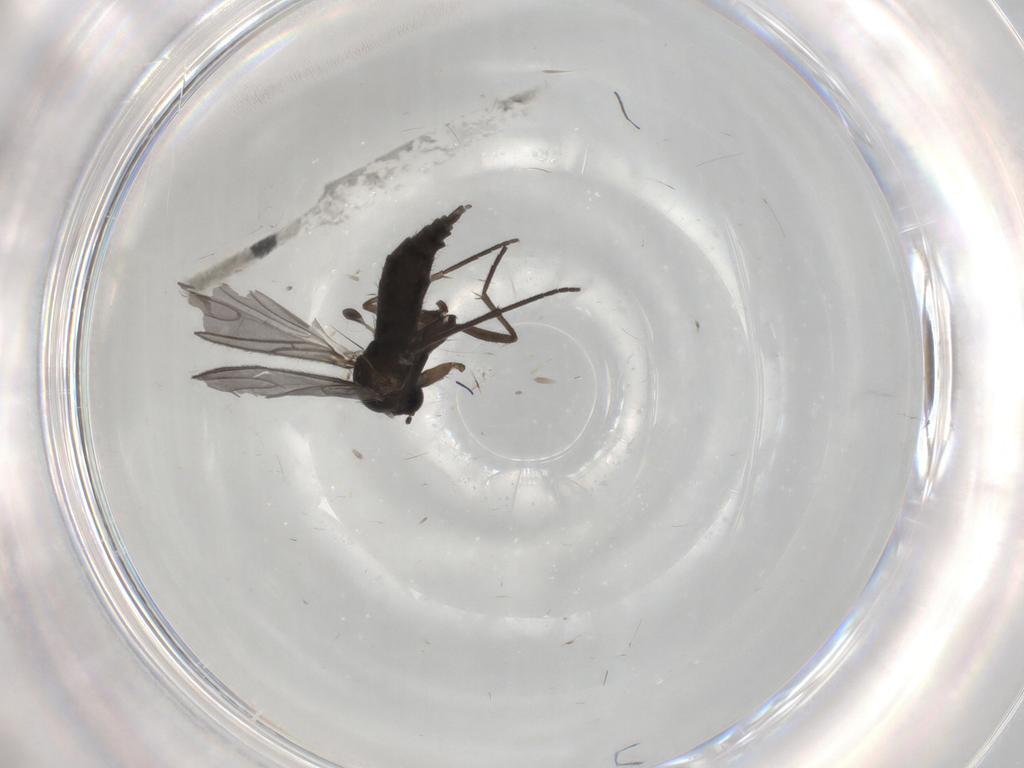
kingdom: Animalia
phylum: Arthropoda
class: Insecta
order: Diptera
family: Sciaridae
